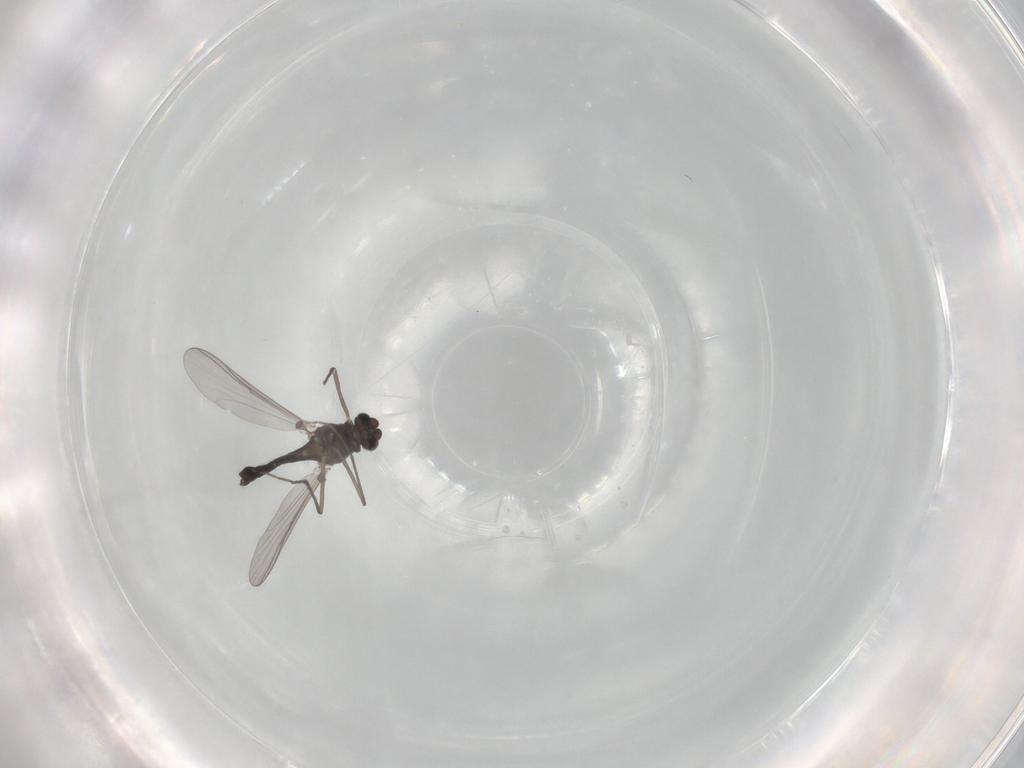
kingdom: Animalia
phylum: Arthropoda
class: Insecta
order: Diptera
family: Chironomidae
